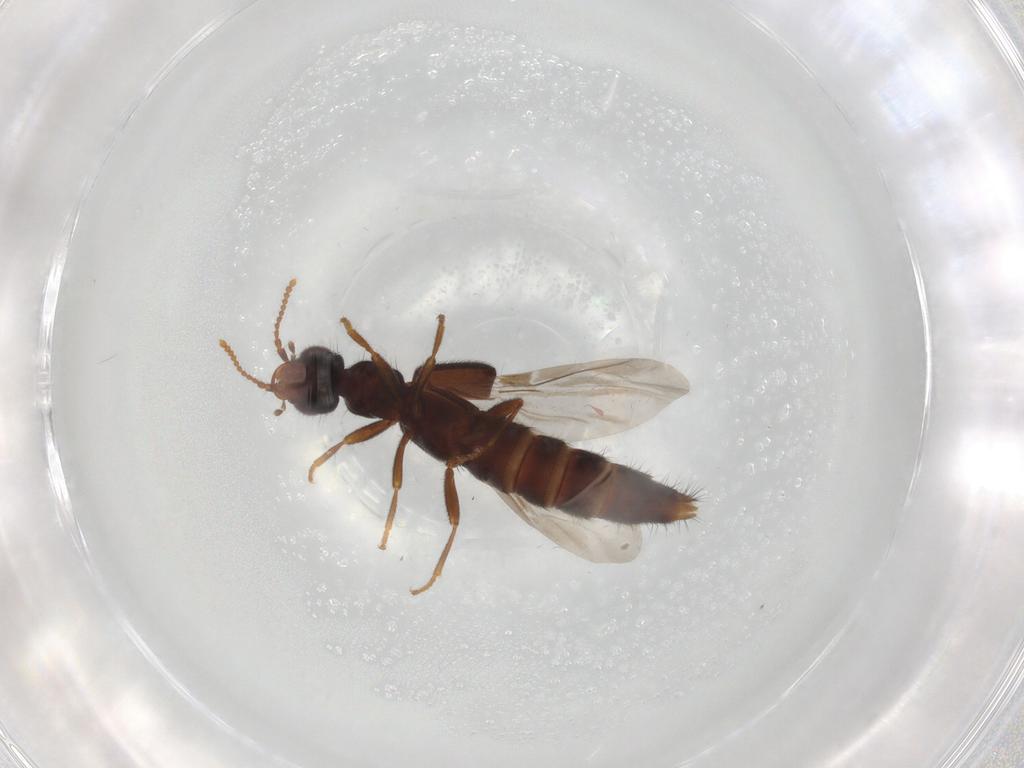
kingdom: Animalia
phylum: Arthropoda
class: Insecta
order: Coleoptera
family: Staphylinidae
